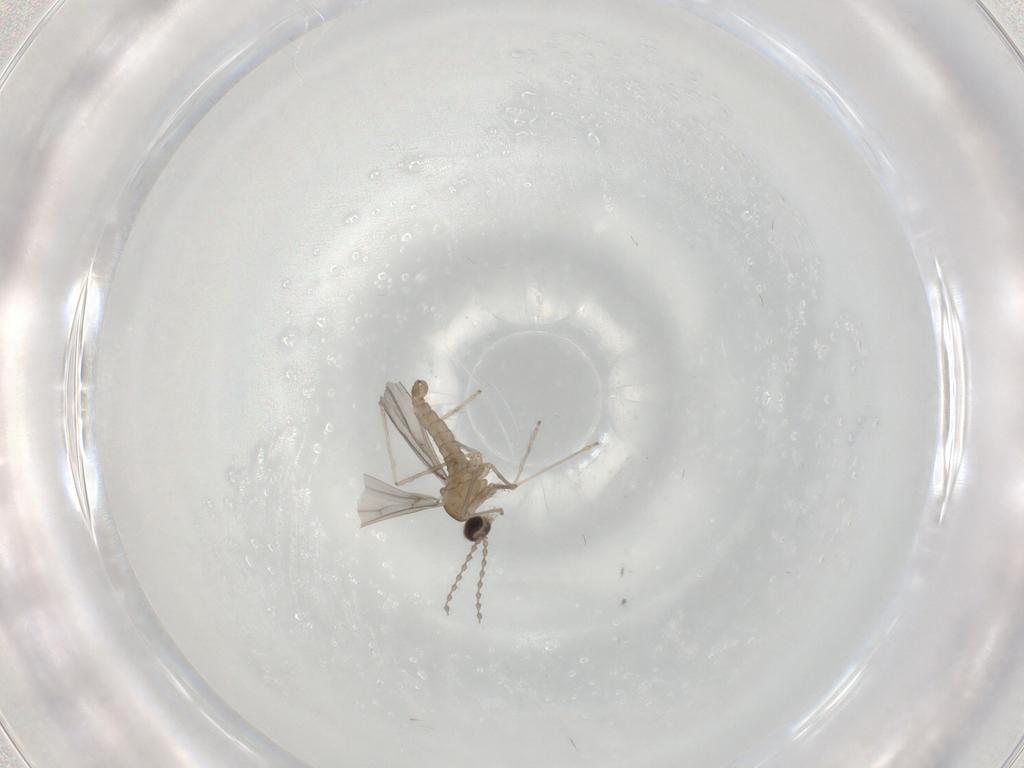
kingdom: Animalia
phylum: Arthropoda
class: Insecta
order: Diptera
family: Cecidomyiidae
